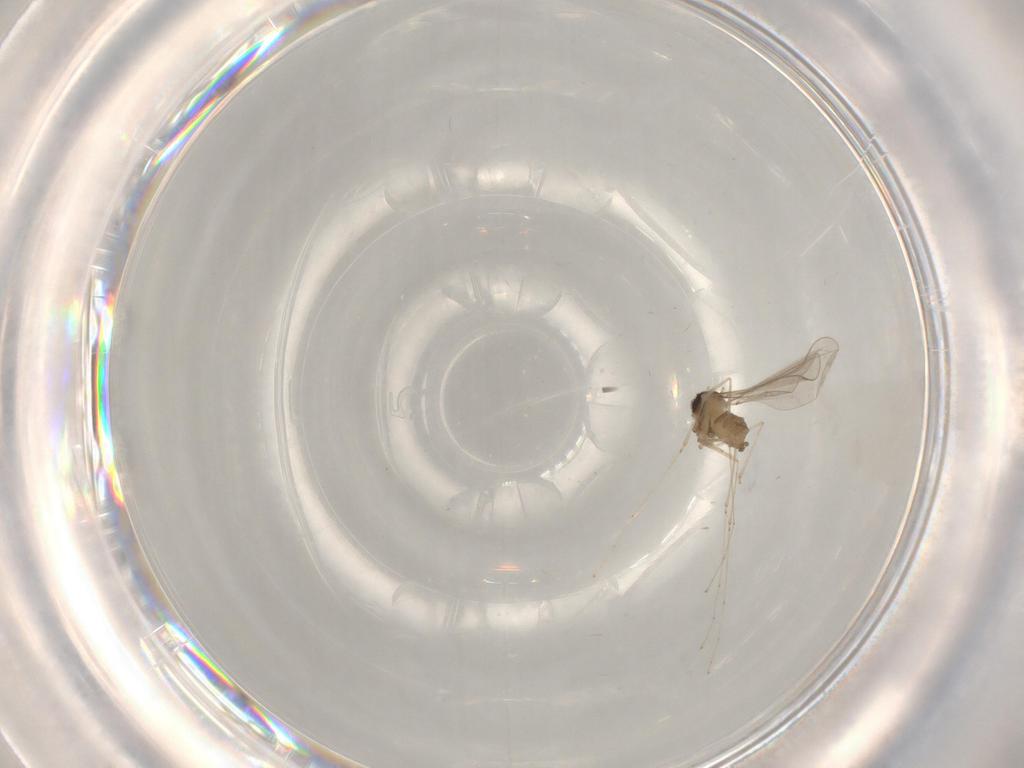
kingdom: Animalia
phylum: Arthropoda
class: Insecta
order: Diptera
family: Cecidomyiidae
